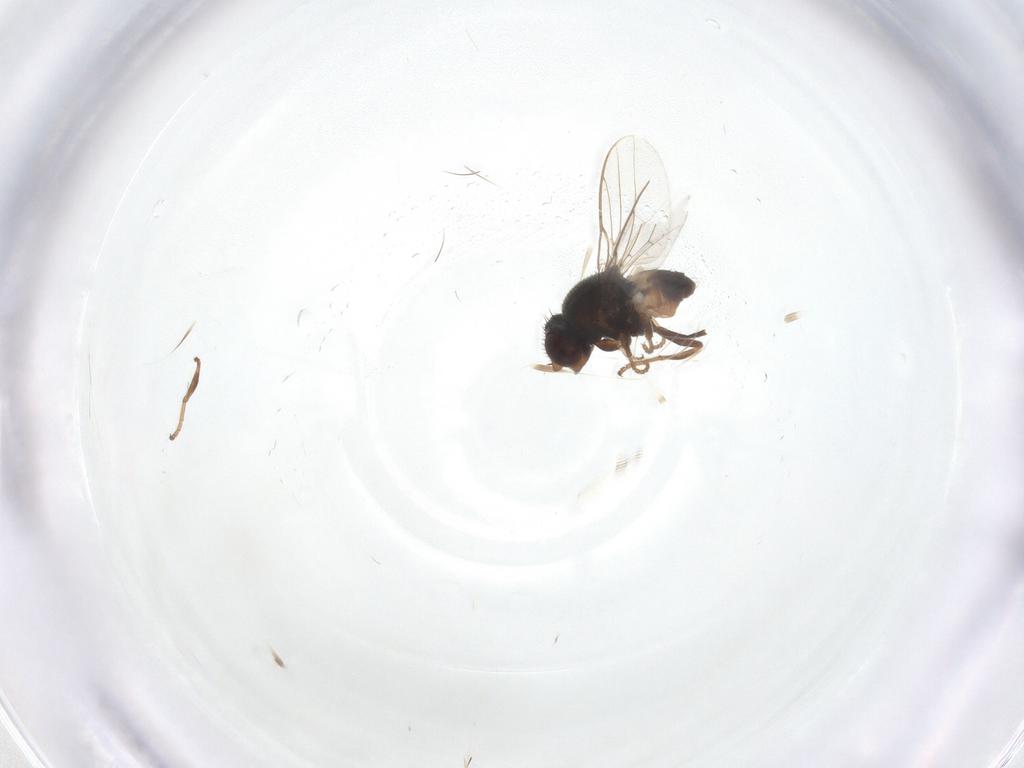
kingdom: Animalia
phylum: Arthropoda
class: Insecta
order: Diptera
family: Chloropidae
